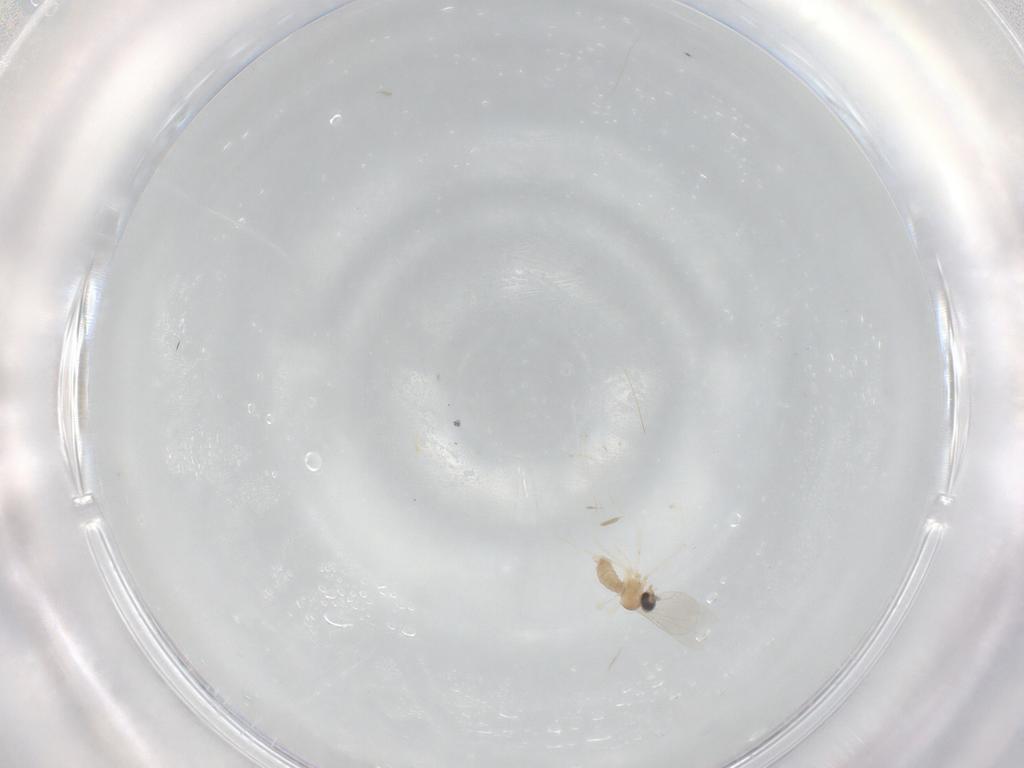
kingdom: Animalia
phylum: Arthropoda
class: Insecta
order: Diptera
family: Cecidomyiidae
